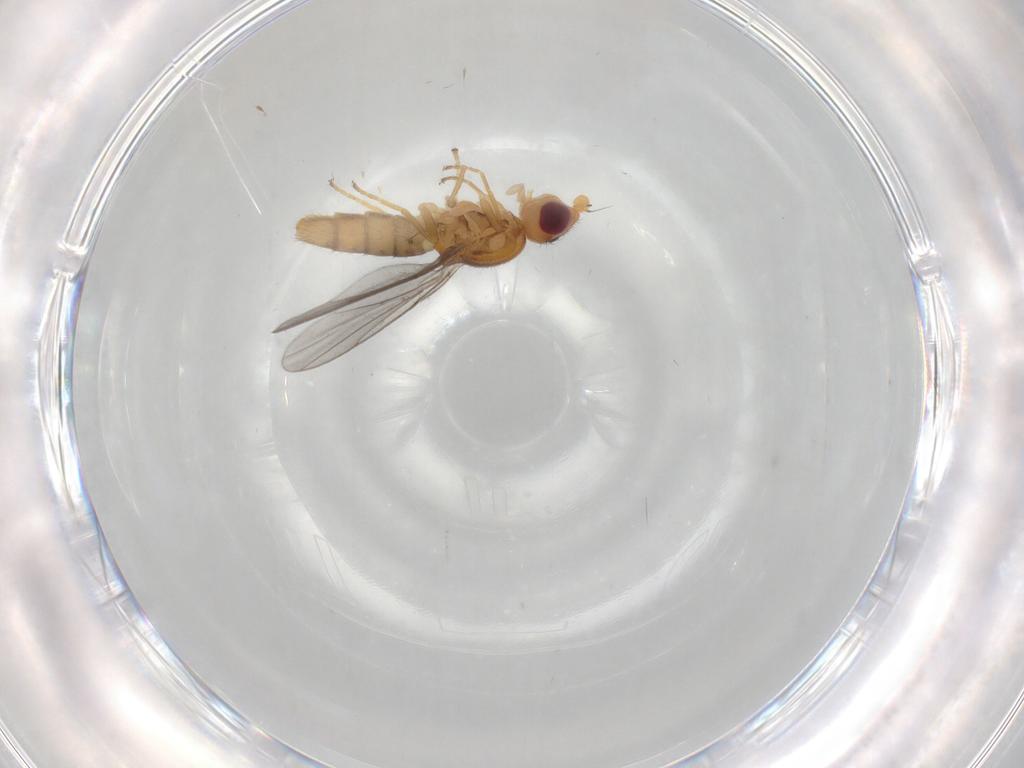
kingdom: Animalia
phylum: Arthropoda
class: Insecta
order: Diptera
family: Chloropidae
